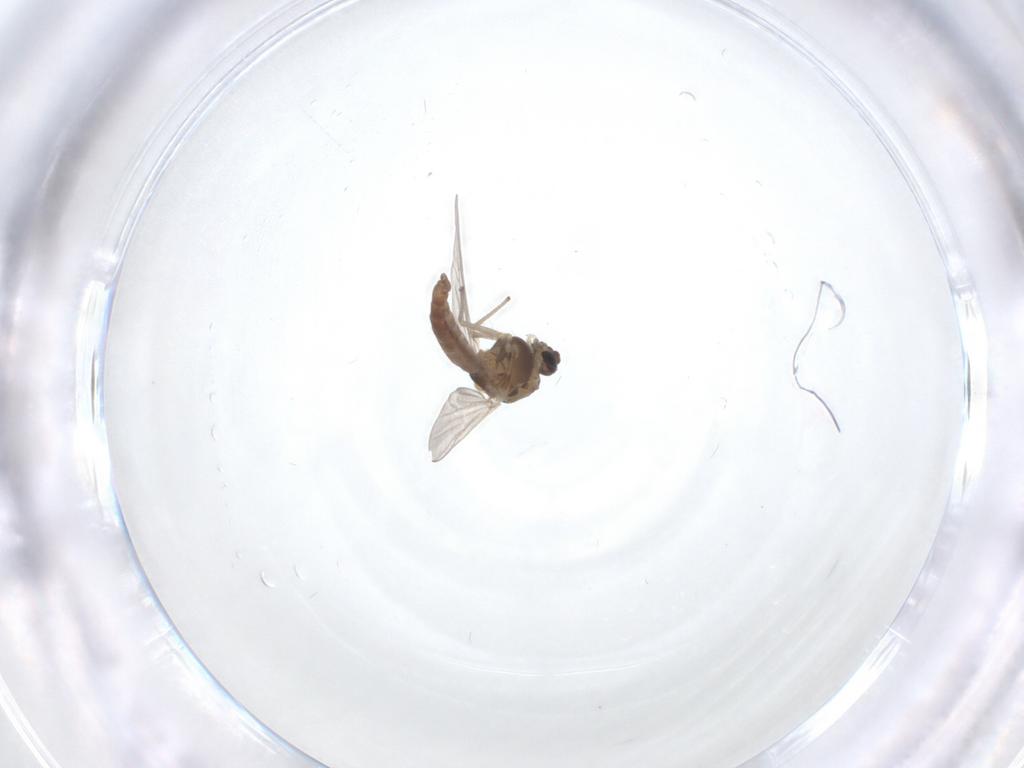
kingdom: Animalia
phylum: Arthropoda
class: Insecta
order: Diptera
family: Chironomidae
